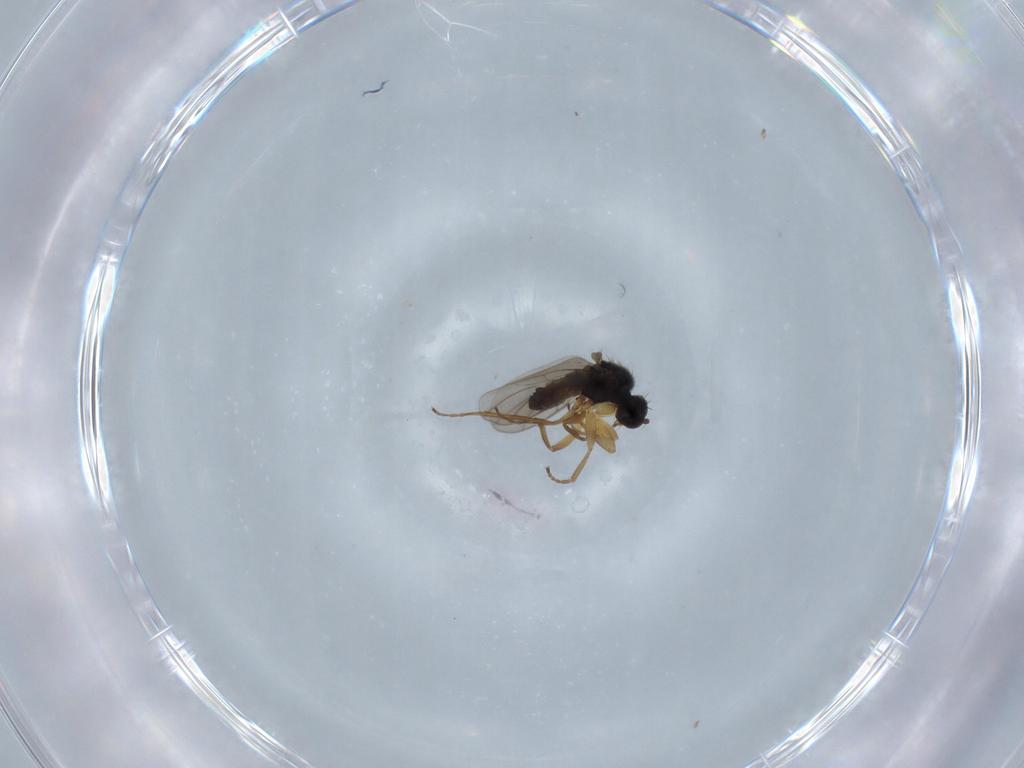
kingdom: Animalia
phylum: Arthropoda
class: Insecta
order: Diptera
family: Hybotidae
